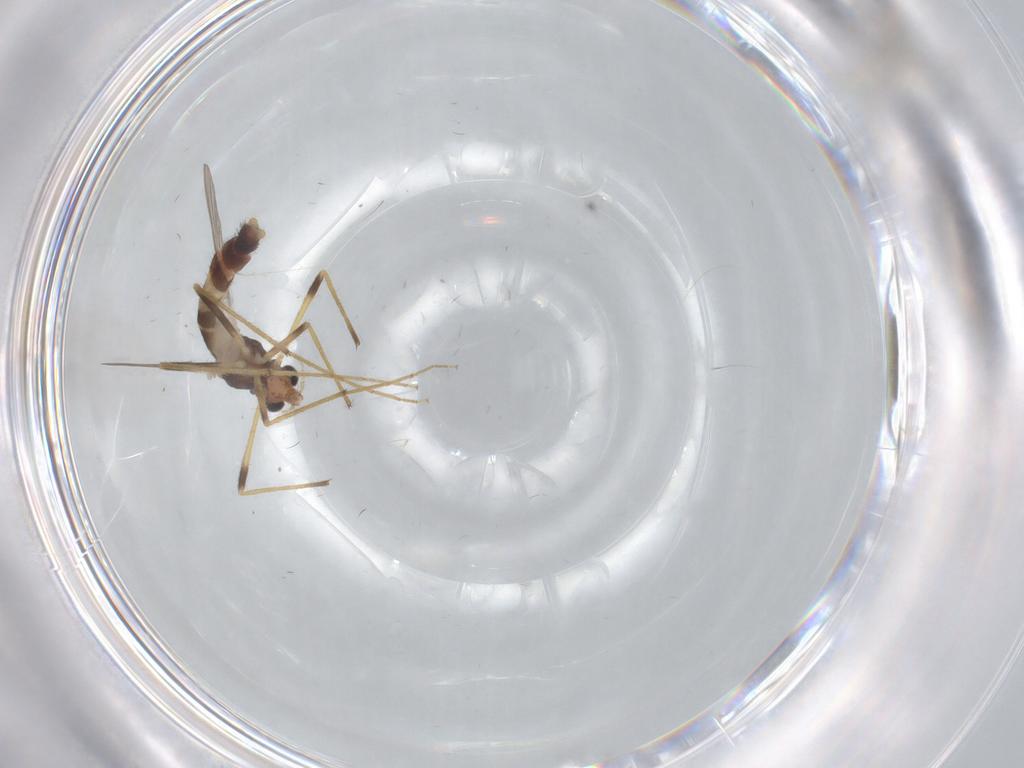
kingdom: Animalia
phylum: Arthropoda
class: Insecta
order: Diptera
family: Chironomidae
